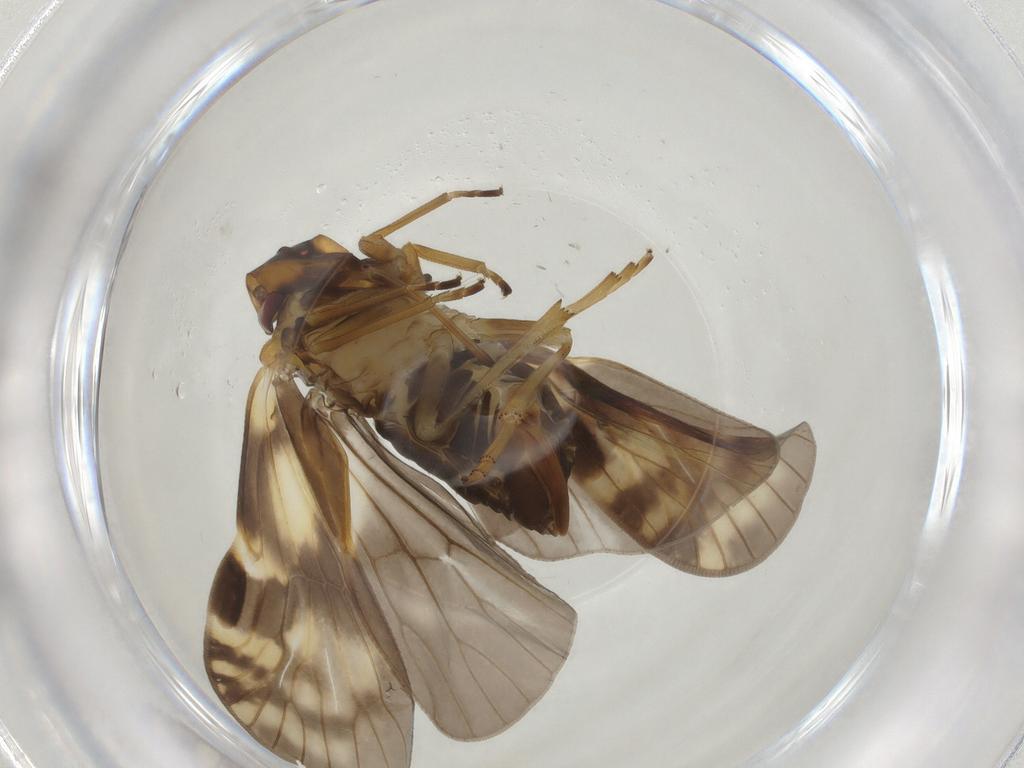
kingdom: Animalia
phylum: Arthropoda
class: Insecta
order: Hemiptera
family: Cixiidae
